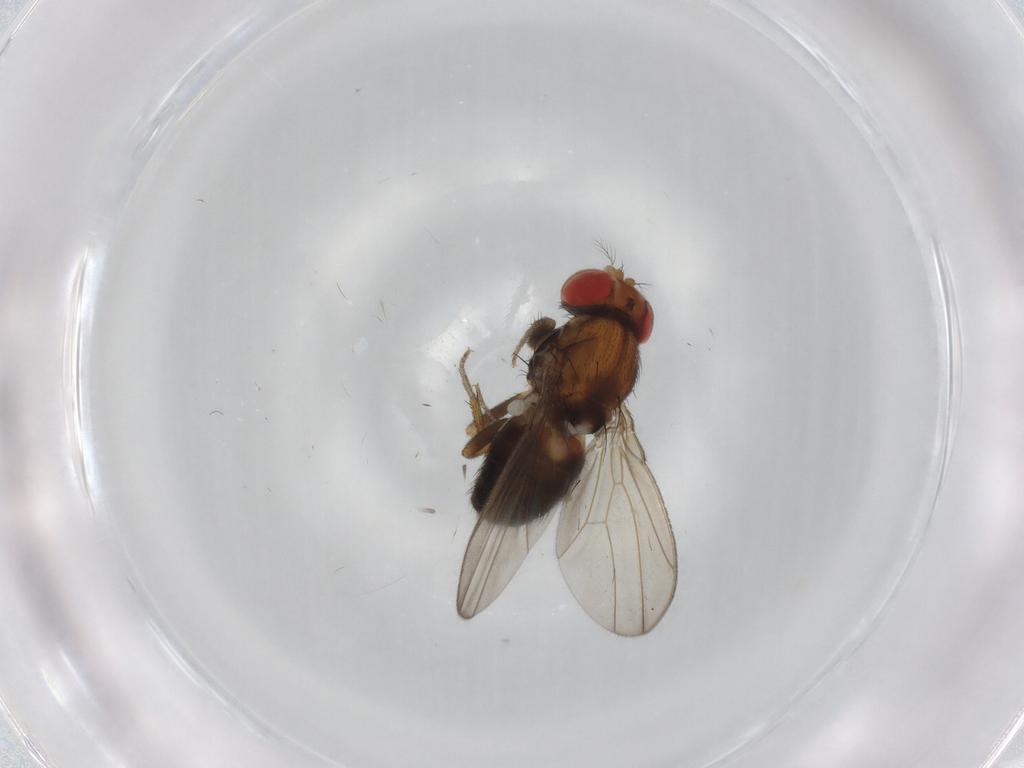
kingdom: Animalia
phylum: Arthropoda
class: Insecta
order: Diptera
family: Drosophilidae
